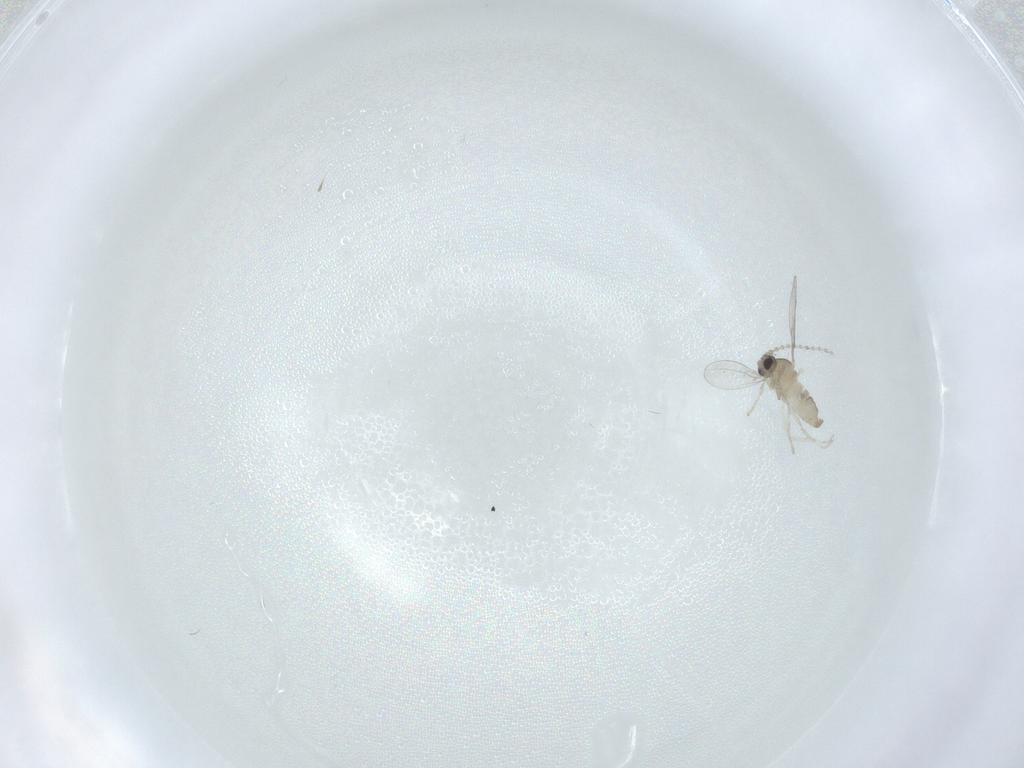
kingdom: Animalia
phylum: Arthropoda
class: Insecta
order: Diptera
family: Cecidomyiidae
